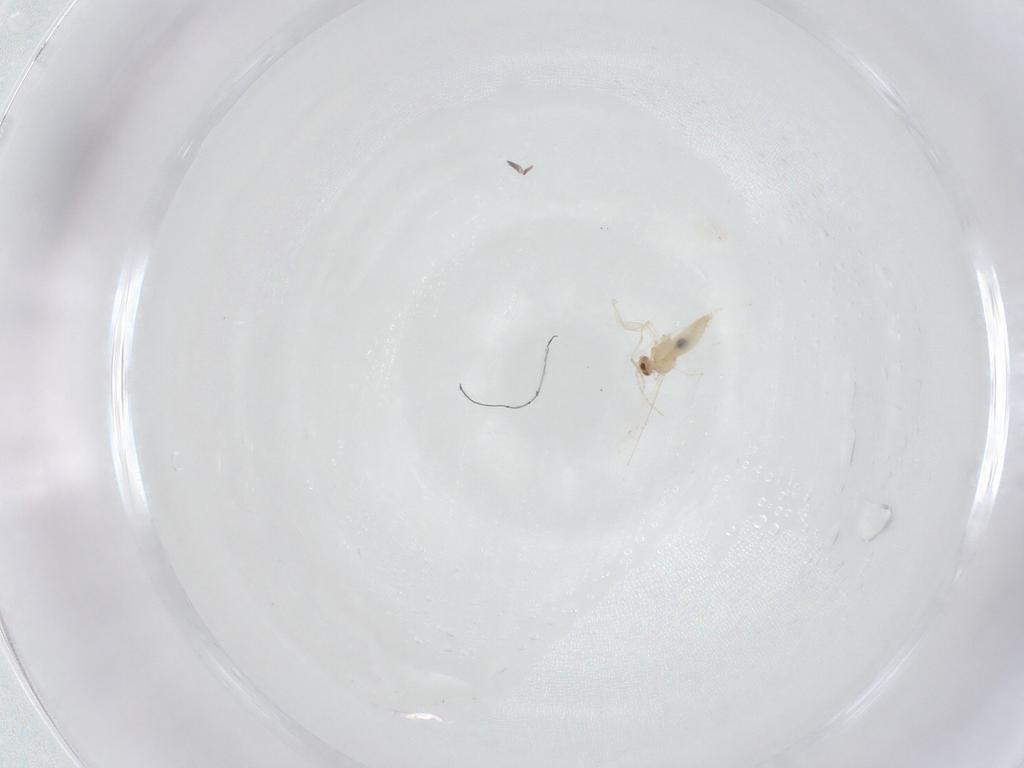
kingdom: Animalia
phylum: Arthropoda
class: Insecta
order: Diptera
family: Cecidomyiidae
